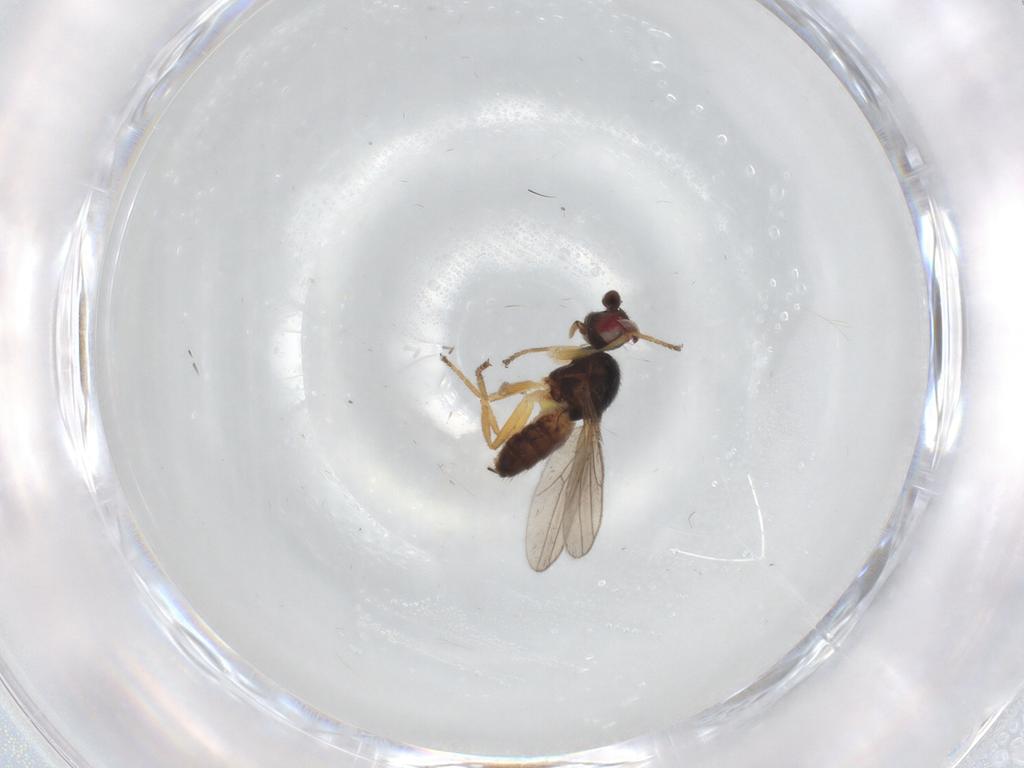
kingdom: Animalia
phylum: Arthropoda
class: Insecta
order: Diptera
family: Chloropidae
